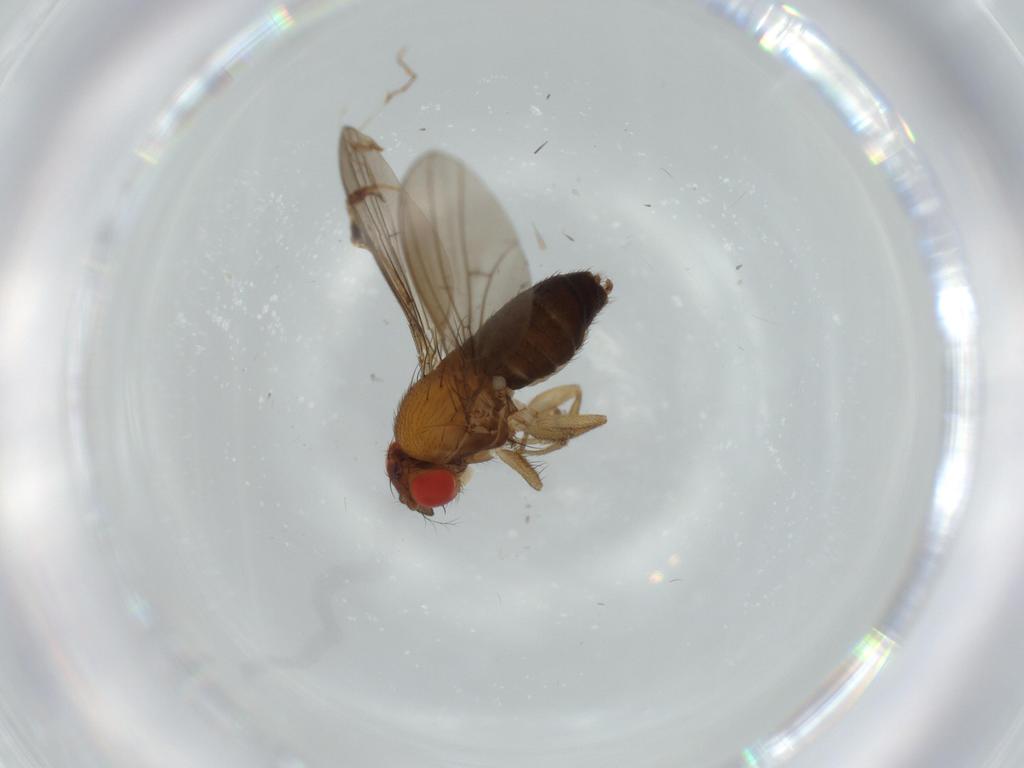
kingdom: Animalia
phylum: Arthropoda
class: Insecta
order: Diptera
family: Drosophilidae
